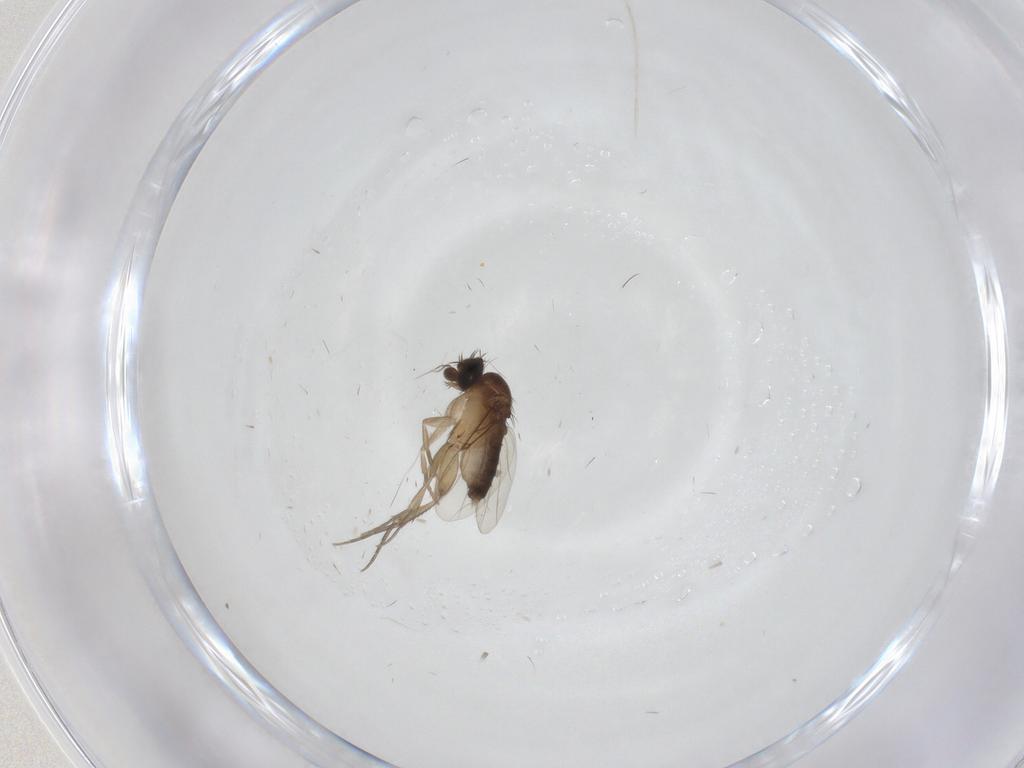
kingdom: Animalia
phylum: Arthropoda
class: Insecta
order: Diptera
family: Phoridae
